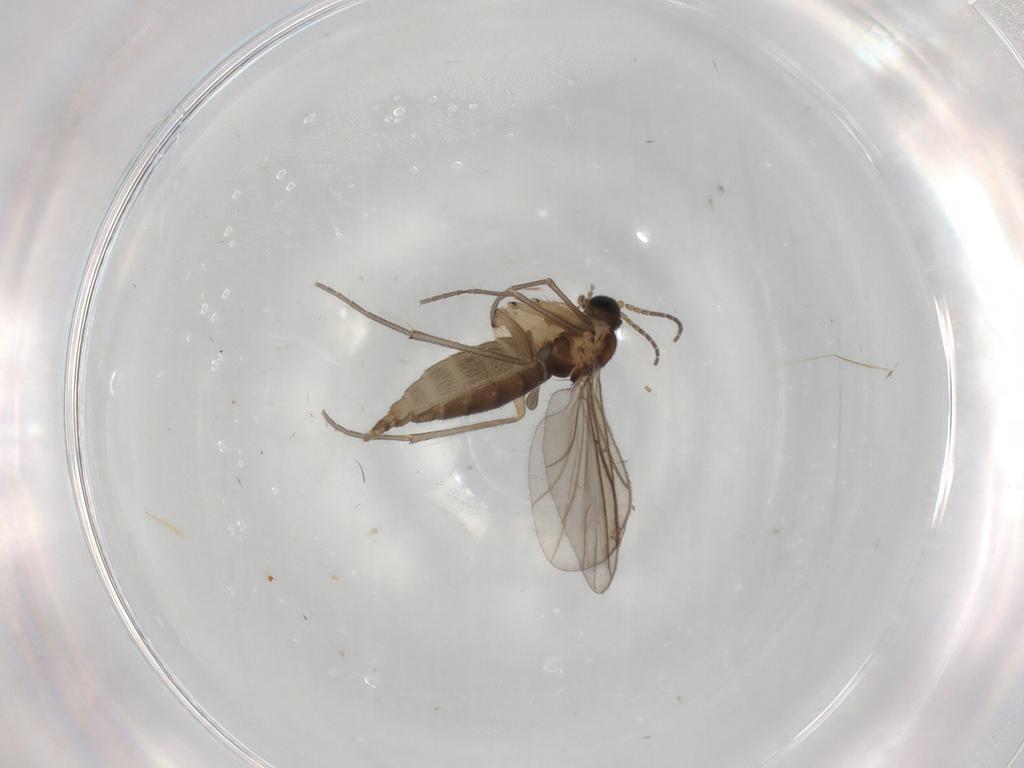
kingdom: Animalia
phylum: Arthropoda
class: Insecta
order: Diptera
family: Sciaridae
